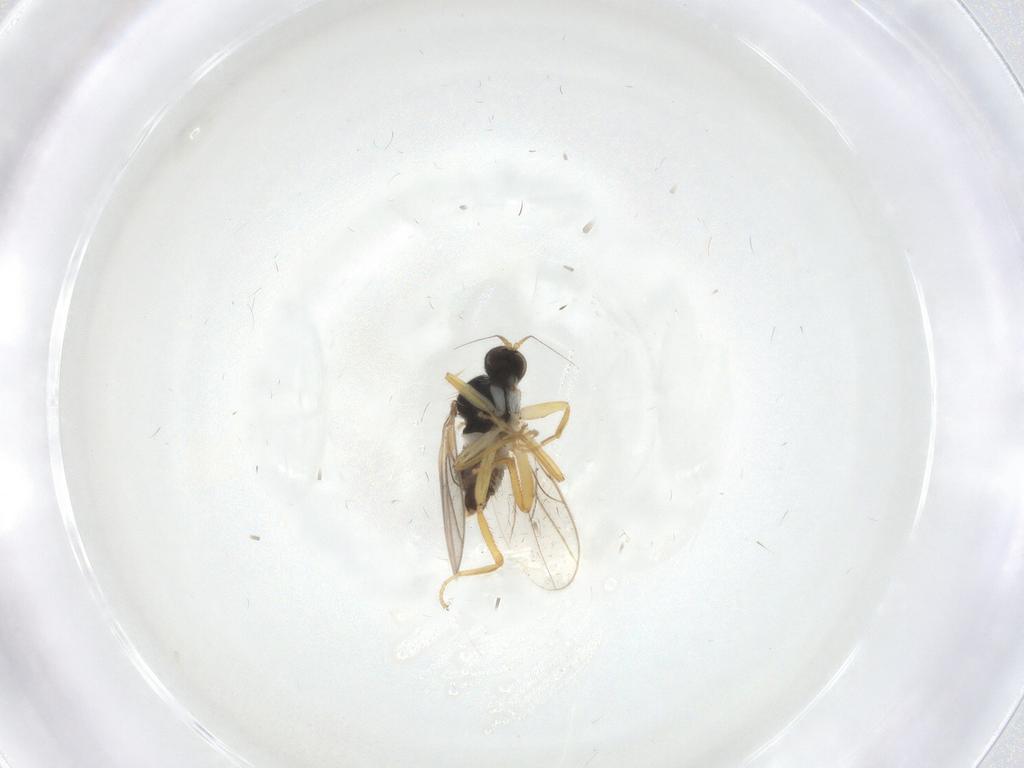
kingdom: Animalia
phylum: Arthropoda
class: Insecta
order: Diptera
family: Hybotidae
